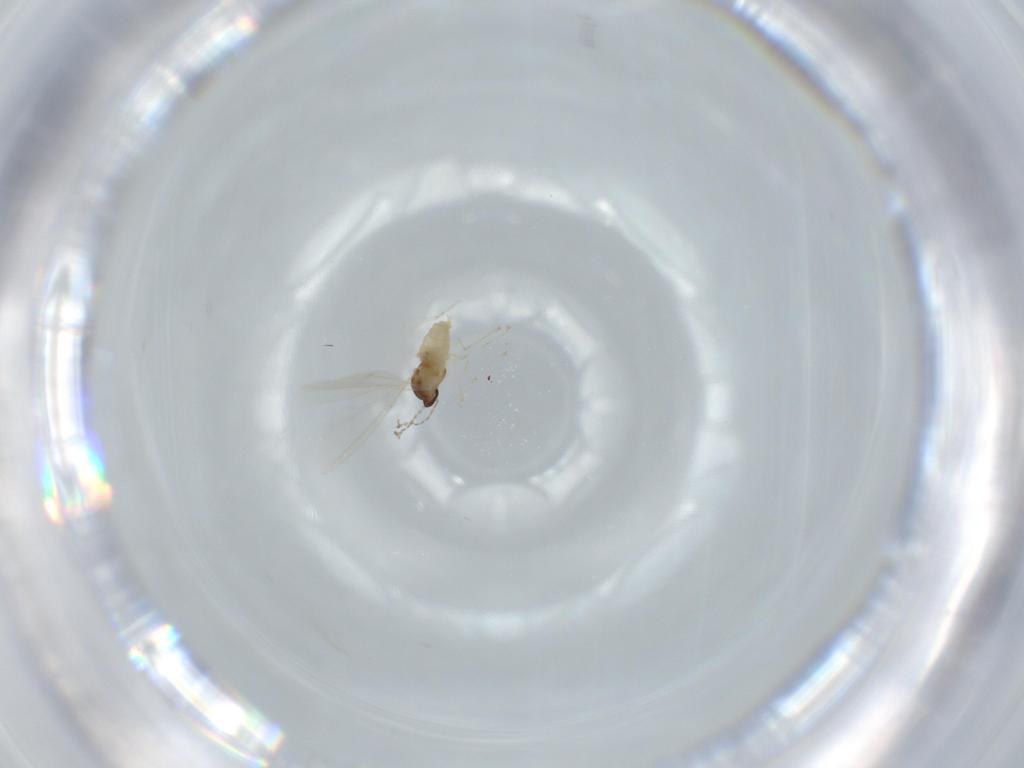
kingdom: Animalia
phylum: Arthropoda
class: Insecta
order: Diptera
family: Cecidomyiidae
